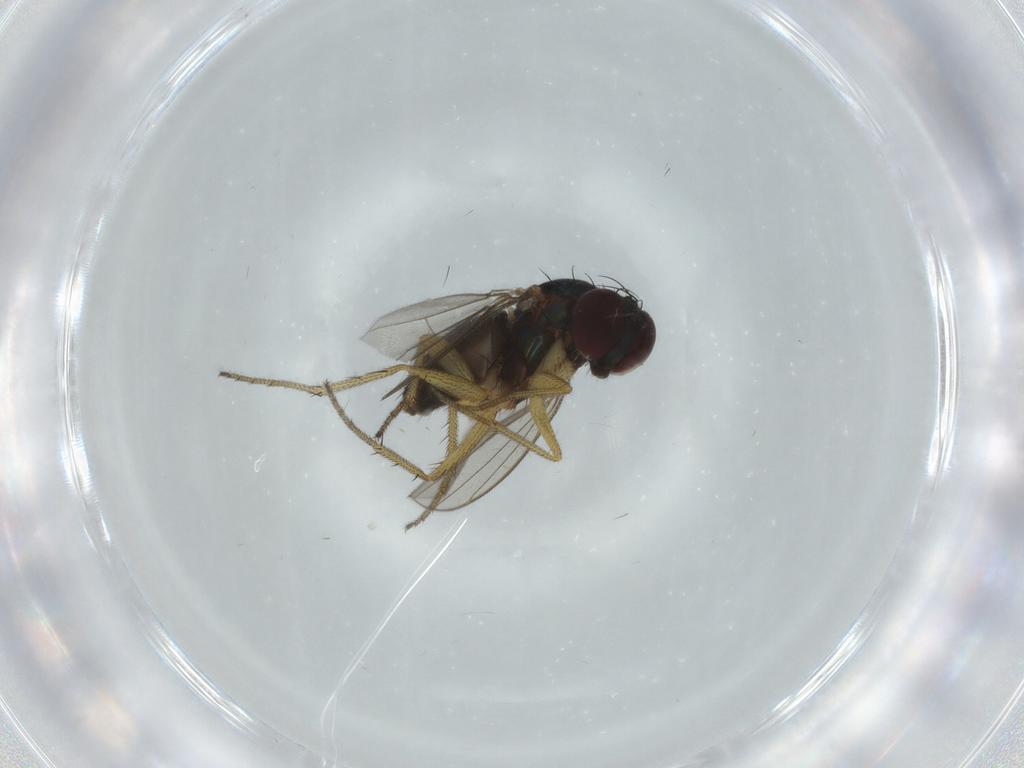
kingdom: Animalia
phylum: Arthropoda
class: Insecta
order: Diptera
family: Dolichopodidae
